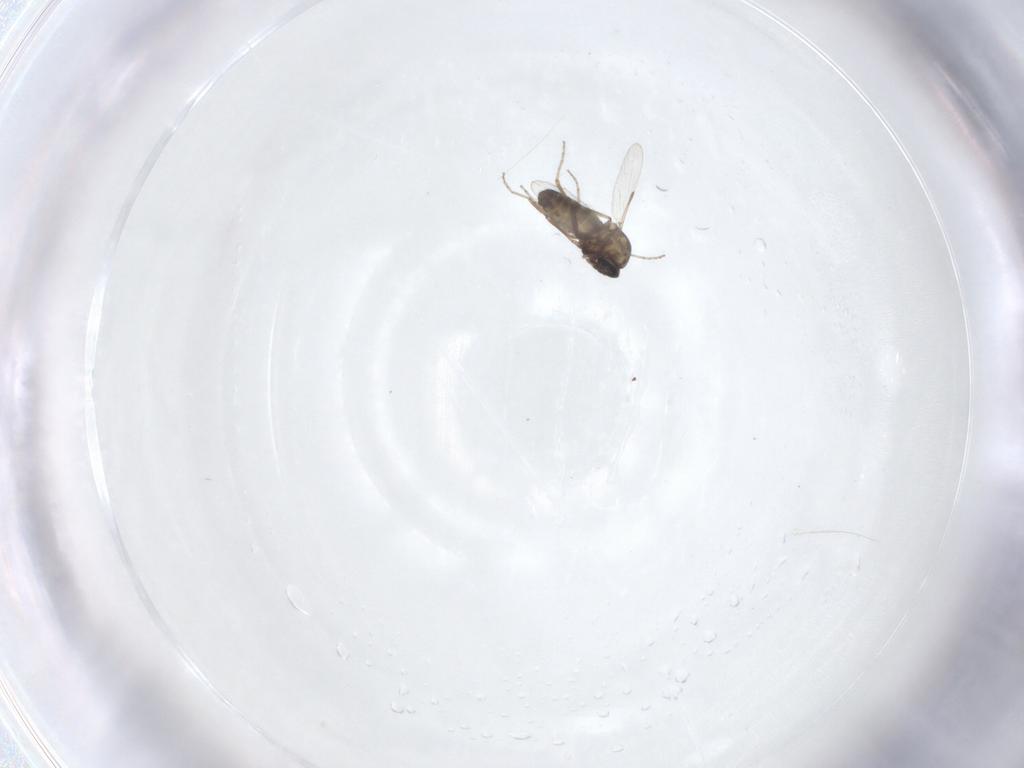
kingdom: Animalia
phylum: Arthropoda
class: Insecta
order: Diptera
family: Ceratopogonidae
